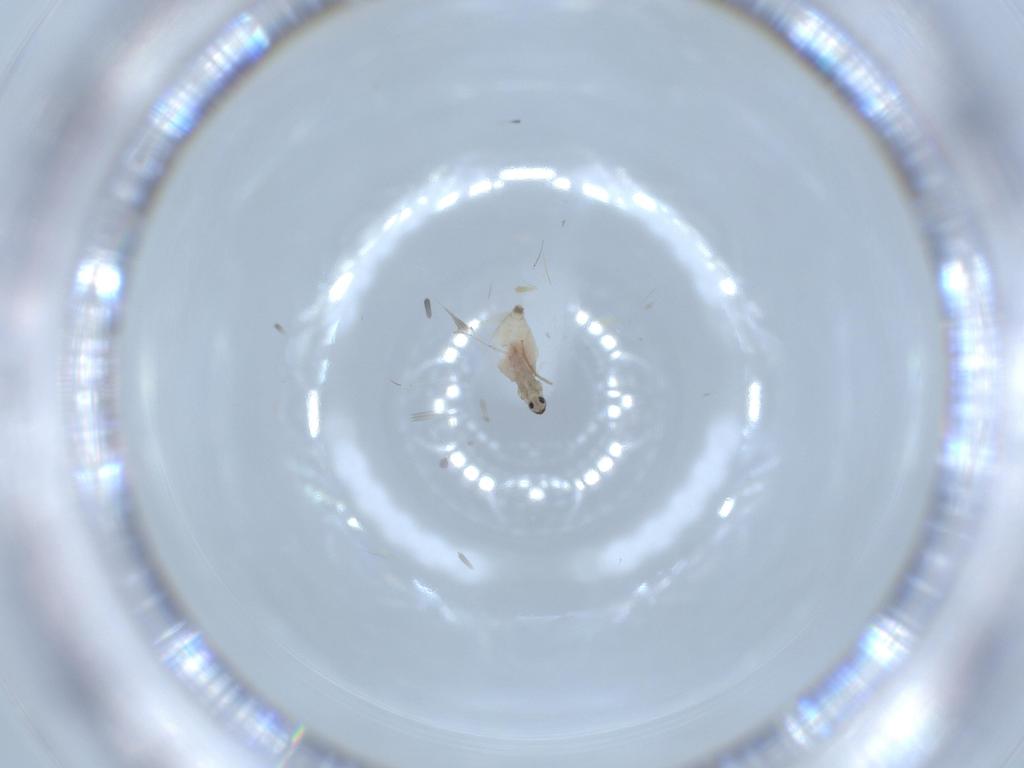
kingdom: Animalia
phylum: Arthropoda
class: Insecta
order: Diptera
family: Cecidomyiidae
